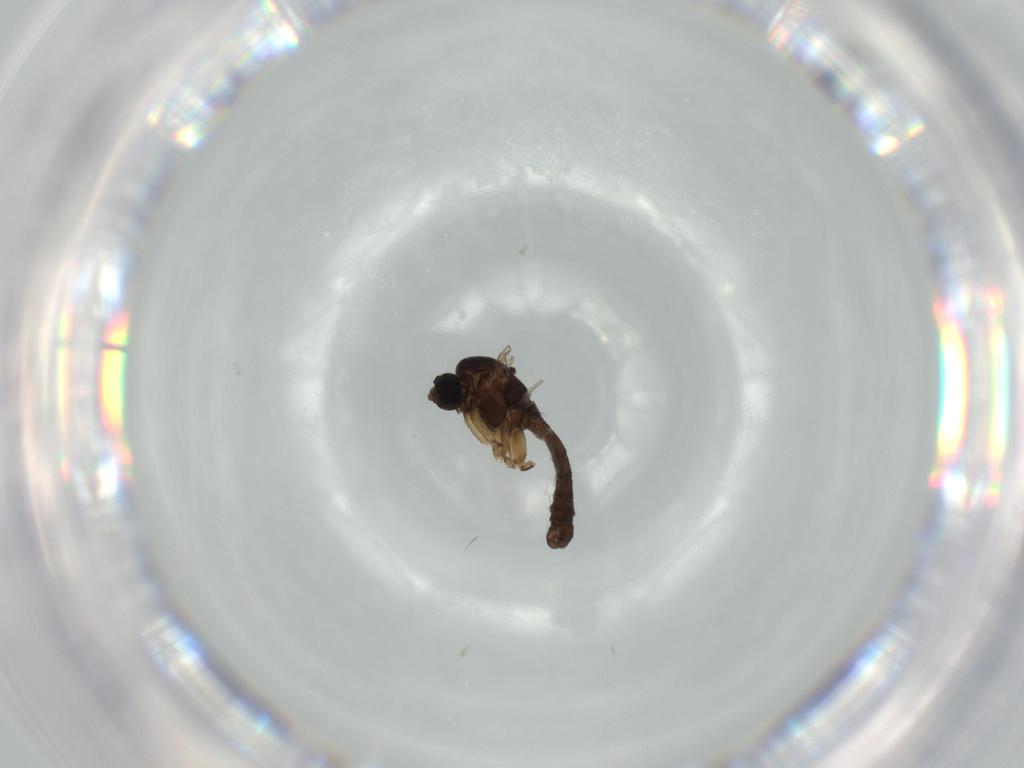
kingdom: Animalia
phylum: Arthropoda
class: Insecta
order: Diptera
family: Sciaridae
